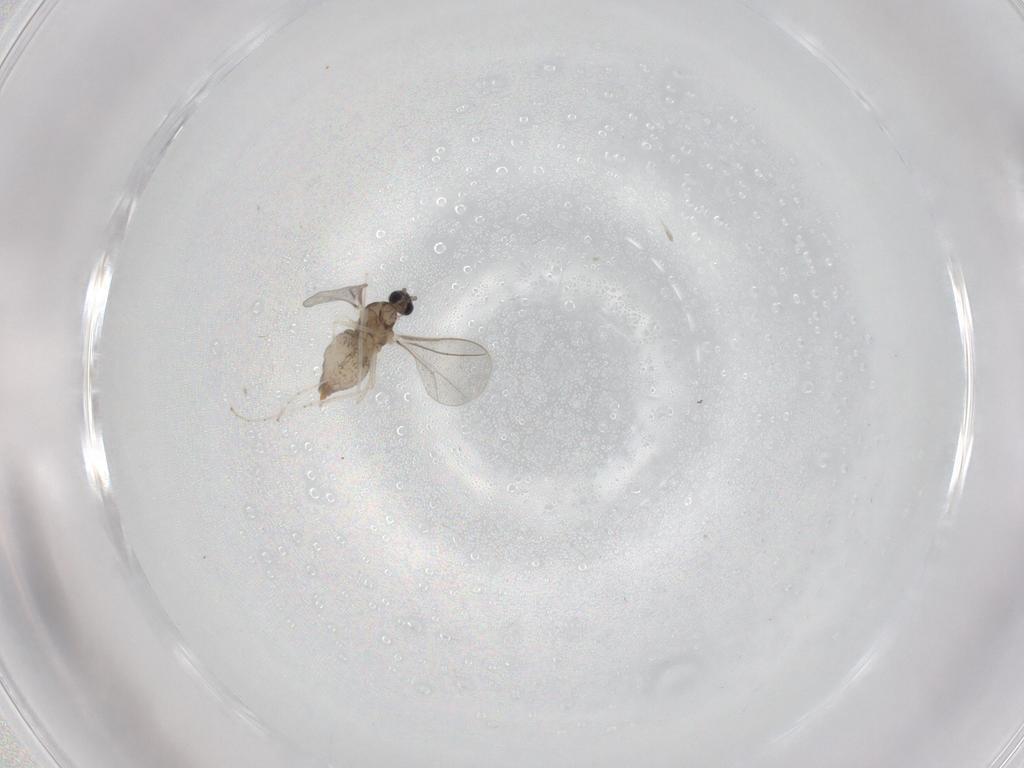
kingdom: Animalia
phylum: Arthropoda
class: Insecta
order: Diptera
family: Cecidomyiidae
